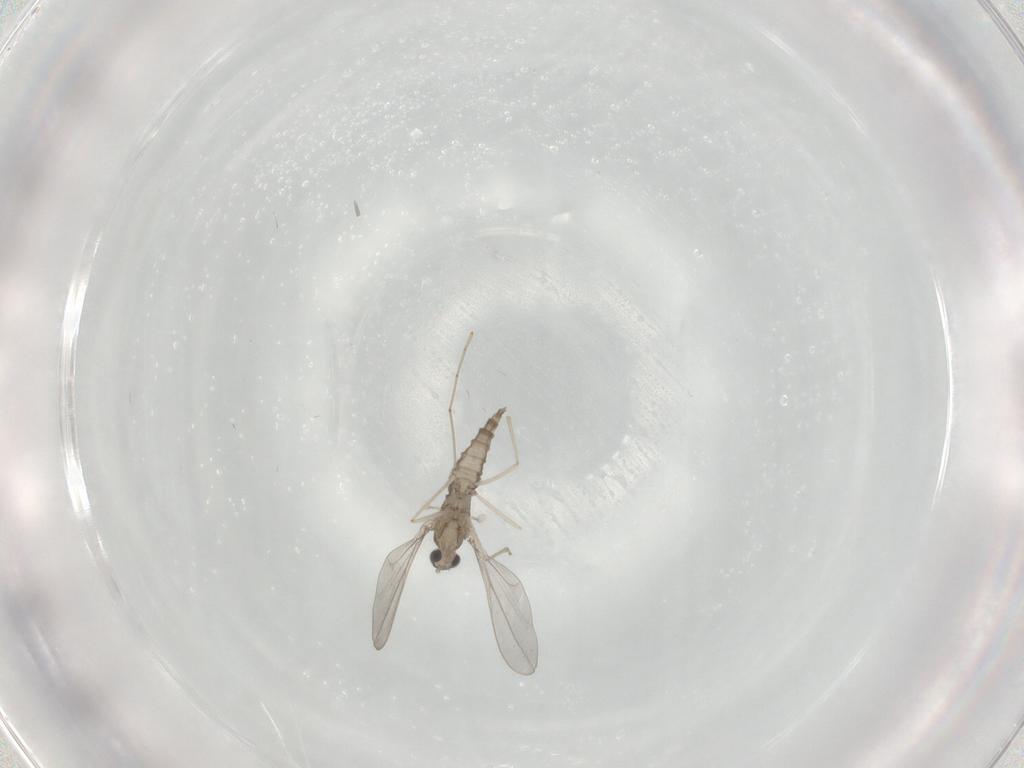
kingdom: Animalia
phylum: Arthropoda
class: Insecta
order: Diptera
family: Cecidomyiidae
